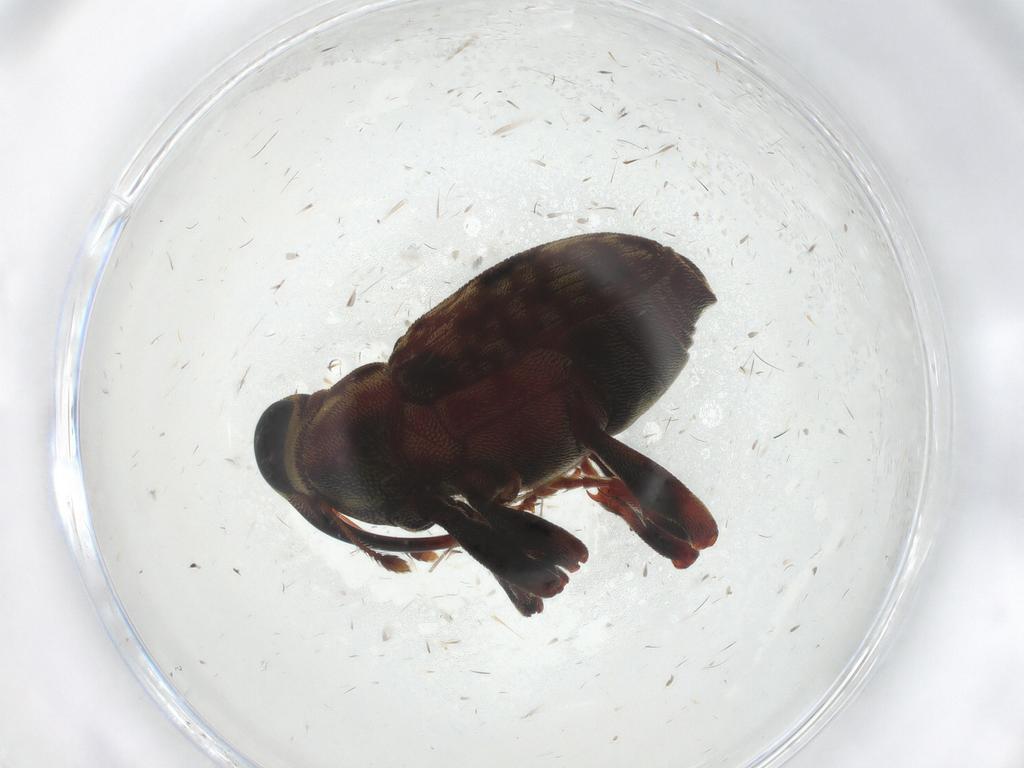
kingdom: Animalia
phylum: Arthropoda
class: Insecta
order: Coleoptera
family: Curculionidae
